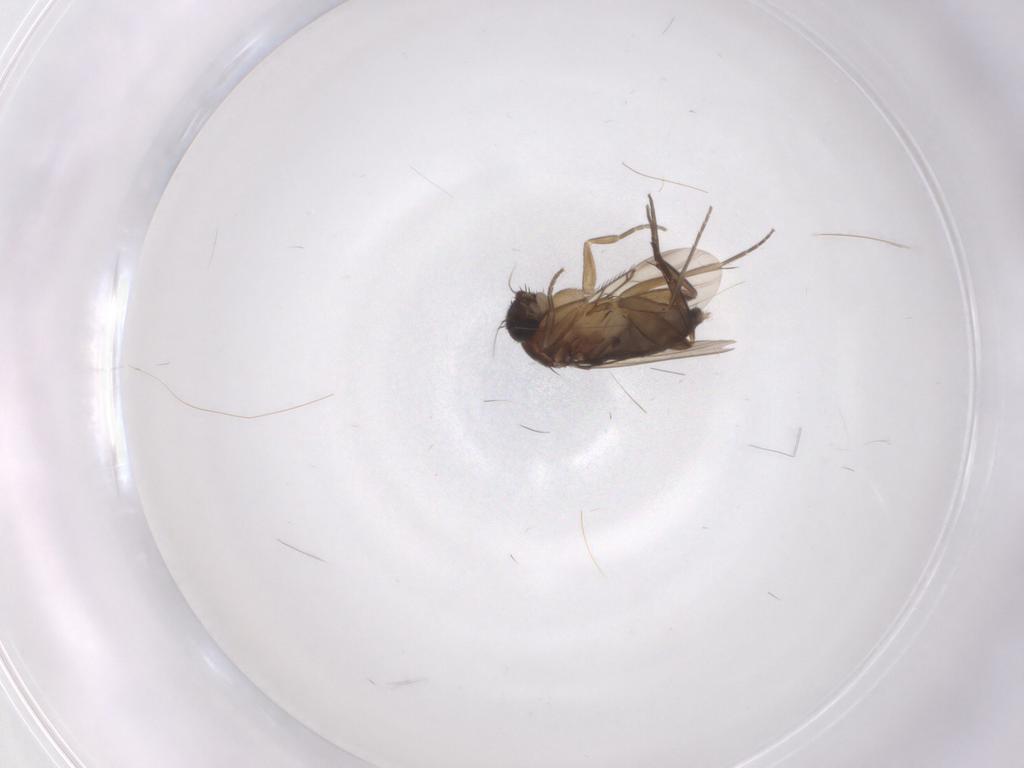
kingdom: Animalia
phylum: Arthropoda
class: Insecta
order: Diptera
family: Phoridae
